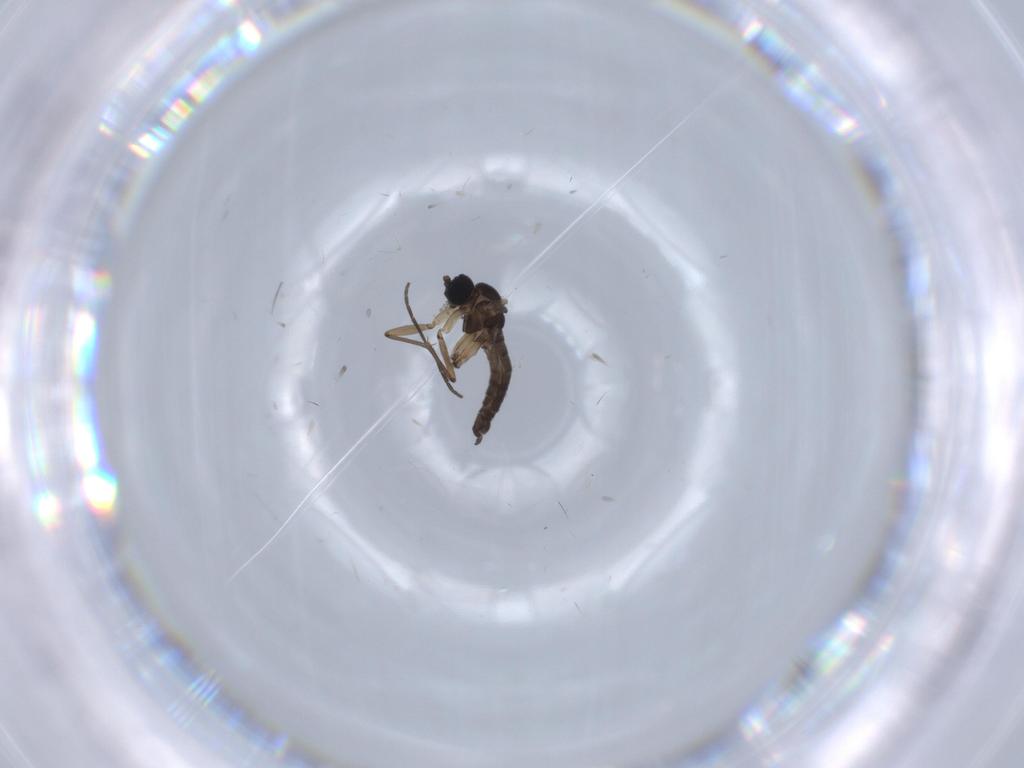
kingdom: Animalia
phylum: Arthropoda
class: Insecta
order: Diptera
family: Sciaridae
